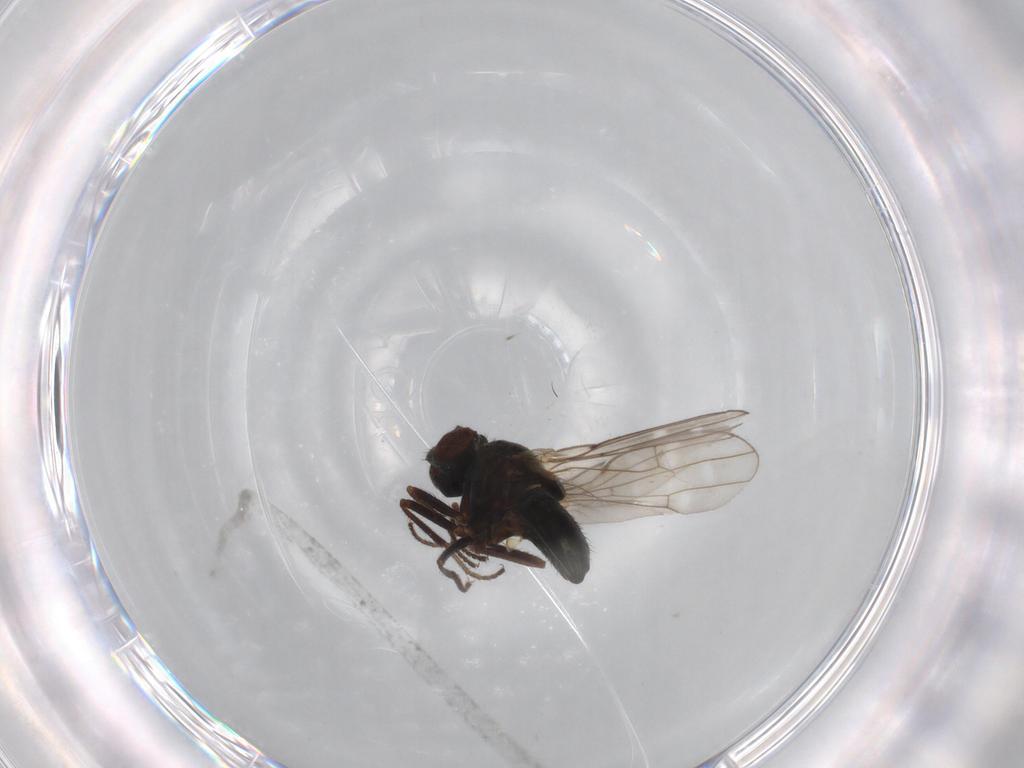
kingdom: Animalia
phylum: Arthropoda
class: Insecta
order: Diptera
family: Ephydridae
